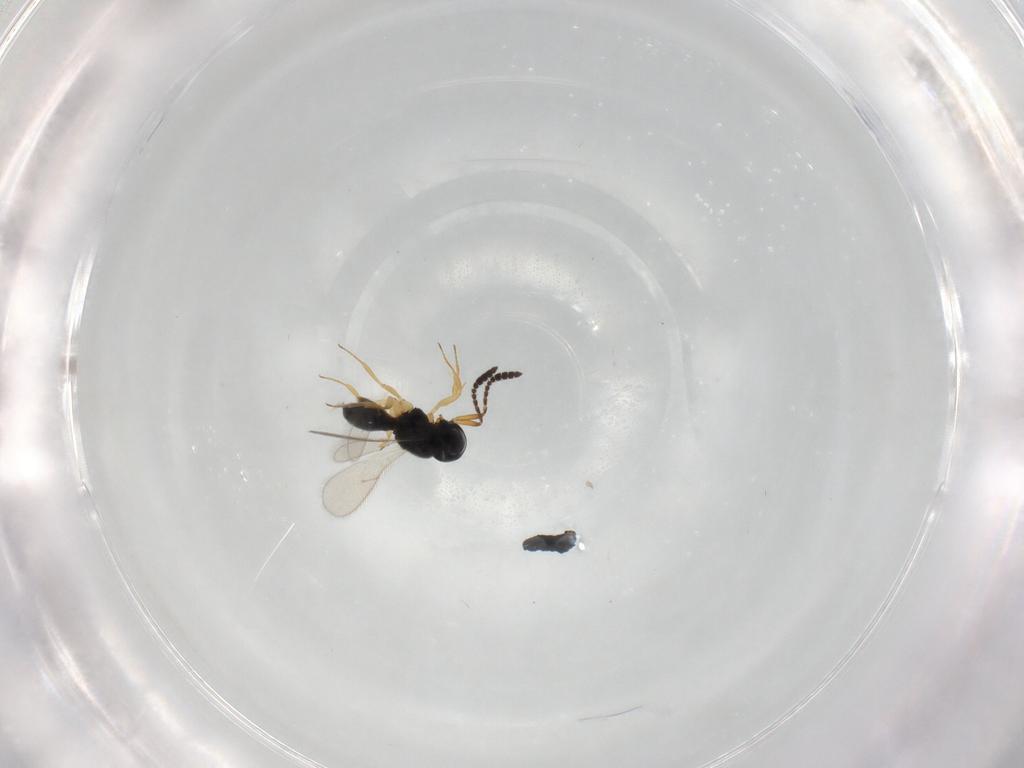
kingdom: Animalia
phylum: Arthropoda
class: Insecta
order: Hymenoptera
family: Scelionidae
